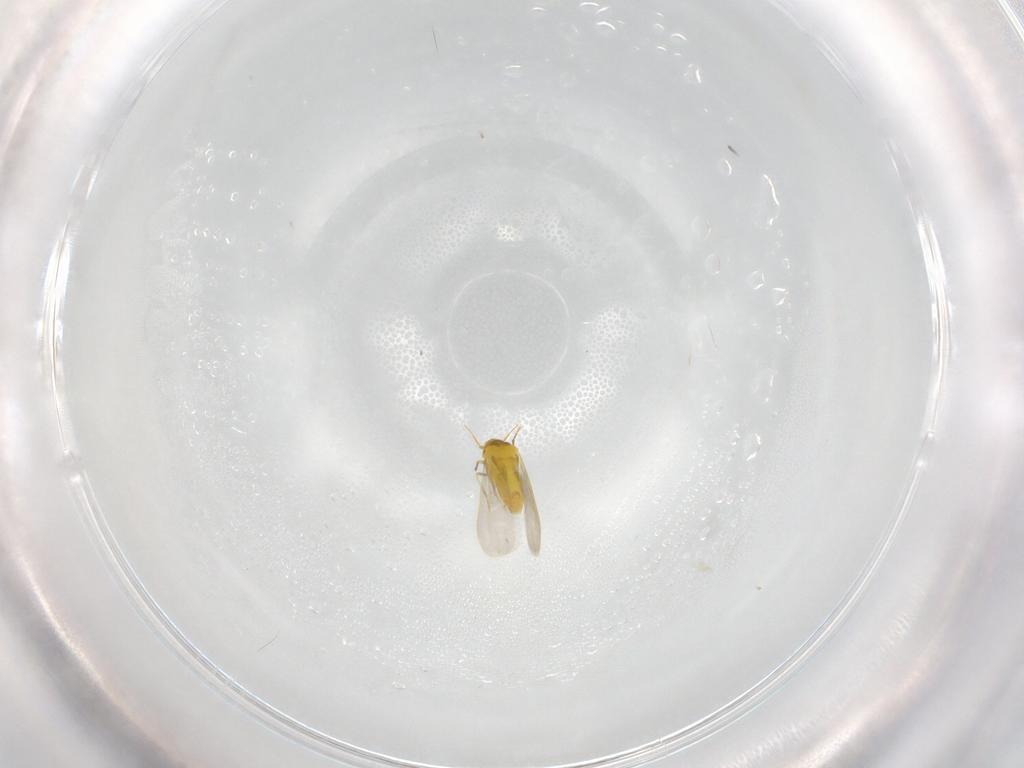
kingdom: Animalia
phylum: Arthropoda
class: Insecta
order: Hemiptera
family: Aleyrodidae
